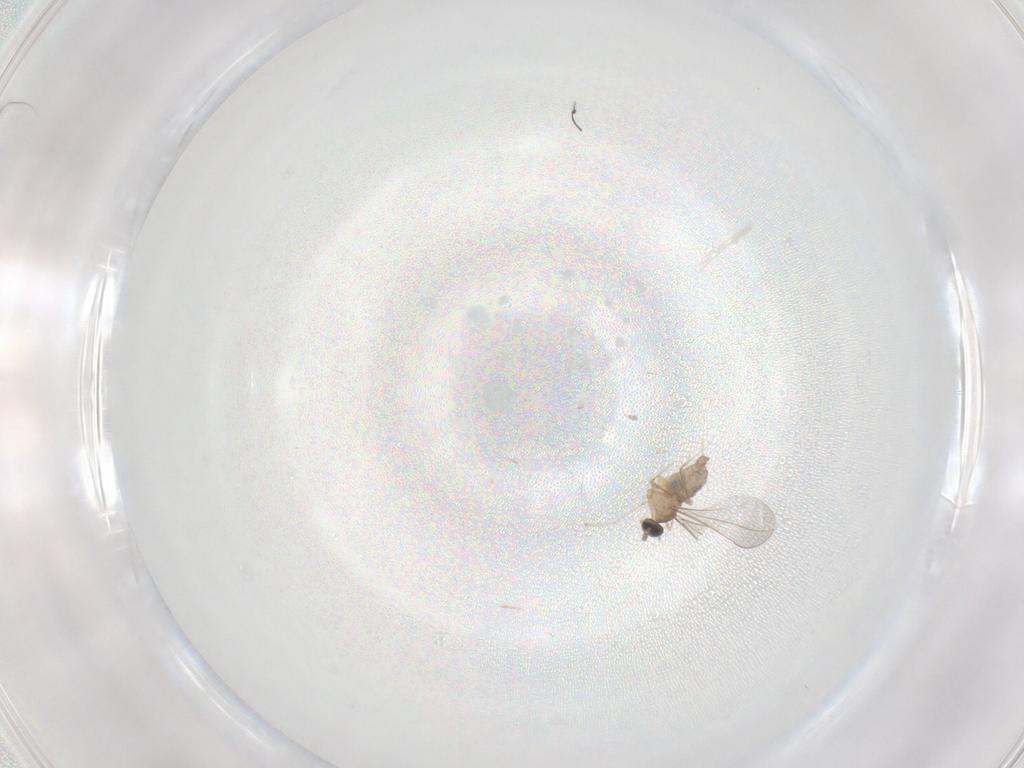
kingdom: Animalia
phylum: Arthropoda
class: Insecta
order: Diptera
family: Cecidomyiidae
